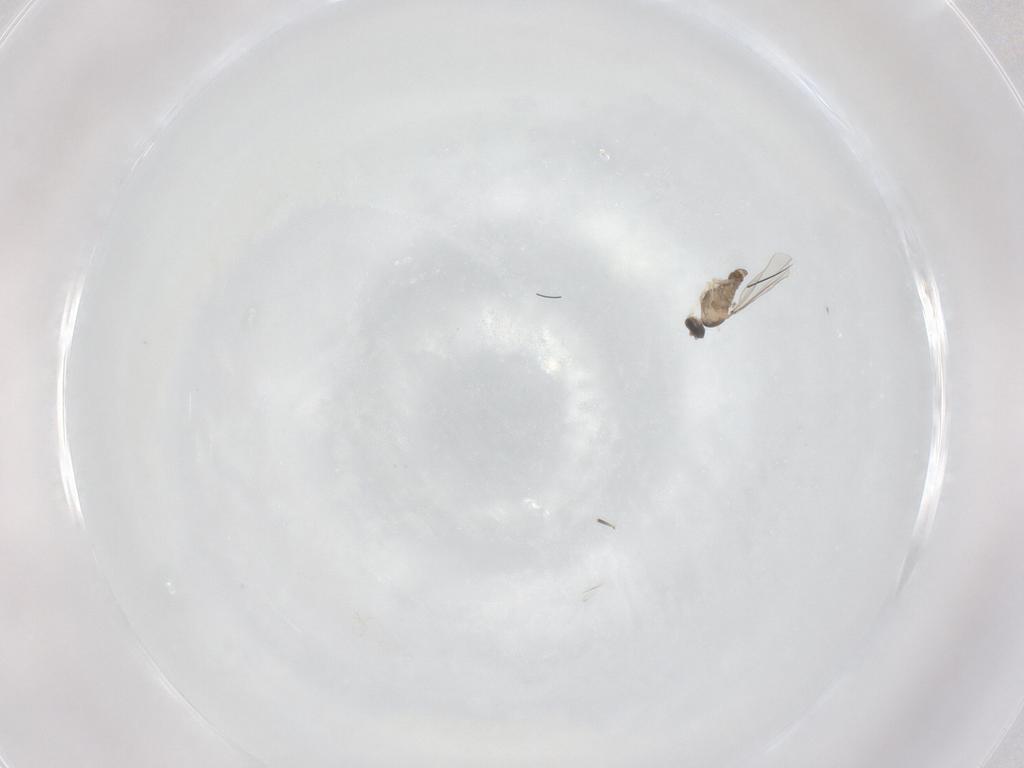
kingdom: Animalia
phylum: Arthropoda
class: Insecta
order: Diptera
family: Cecidomyiidae
